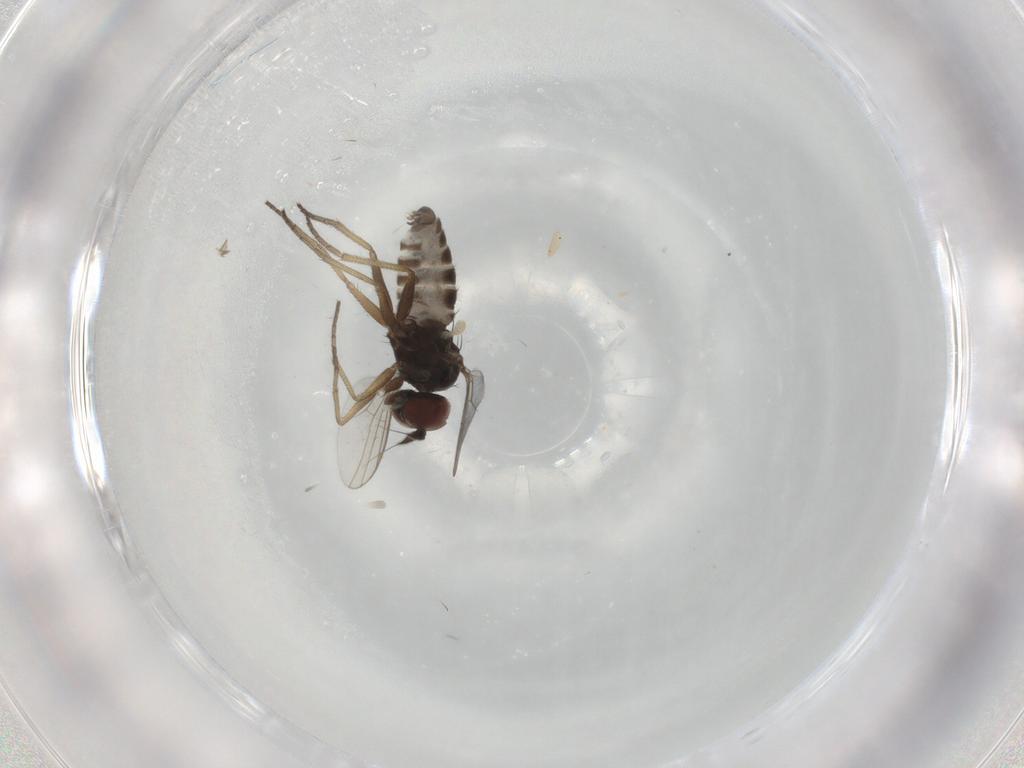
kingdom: Animalia
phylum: Arthropoda
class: Insecta
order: Diptera
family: Dolichopodidae
